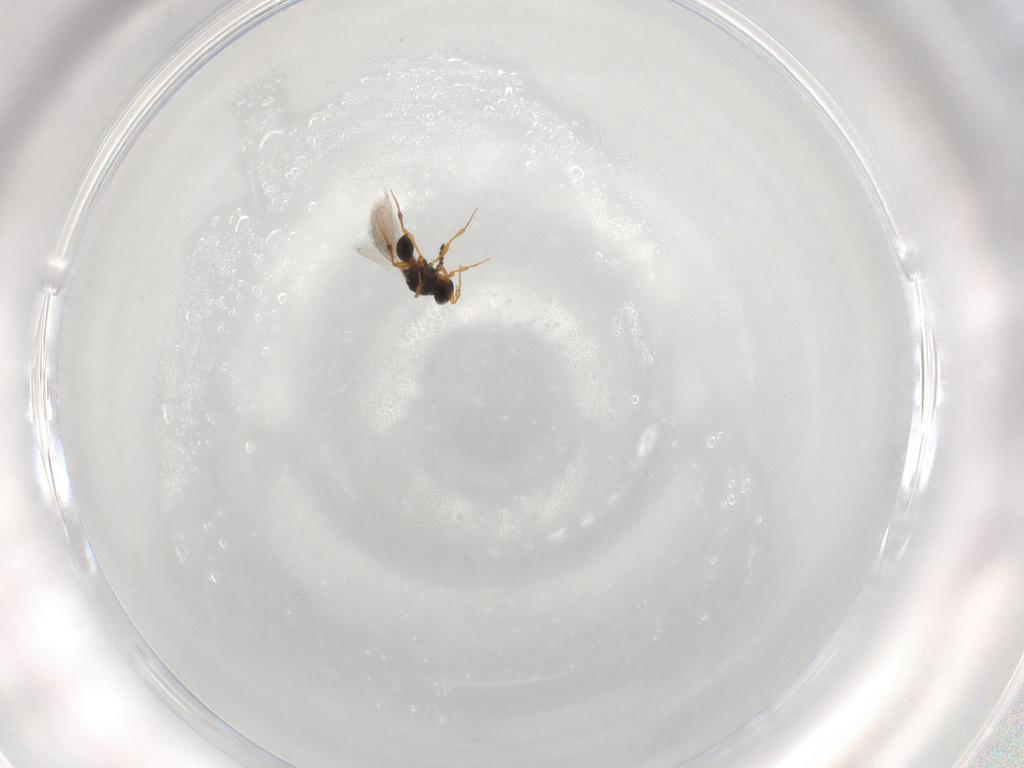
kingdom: Animalia
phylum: Arthropoda
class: Insecta
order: Hymenoptera
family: Platygastridae
